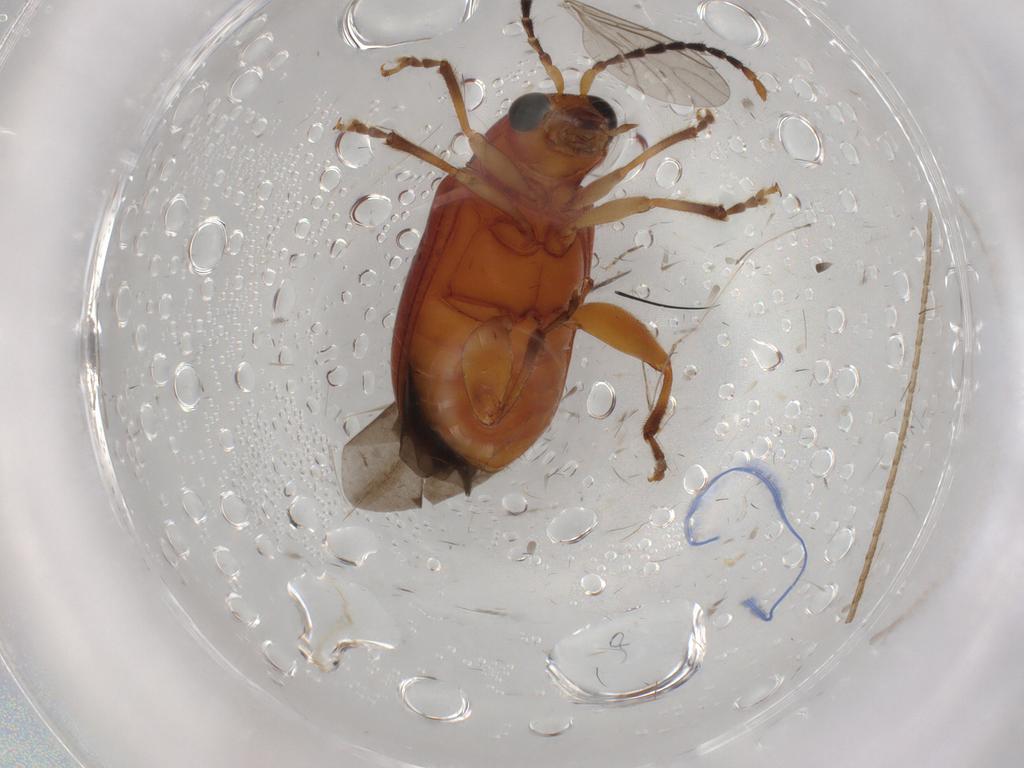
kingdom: Animalia
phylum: Arthropoda
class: Insecta
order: Coleoptera
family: Chrysomelidae
